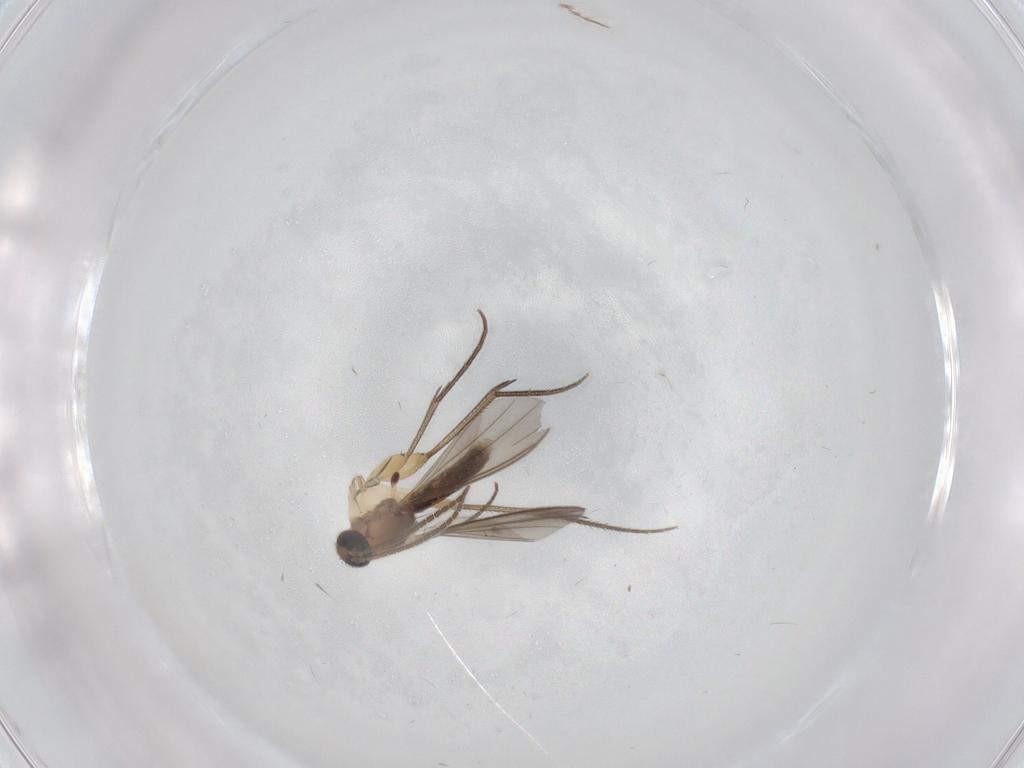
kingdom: Animalia
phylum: Arthropoda
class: Insecta
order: Diptera
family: Mycetophilidae
